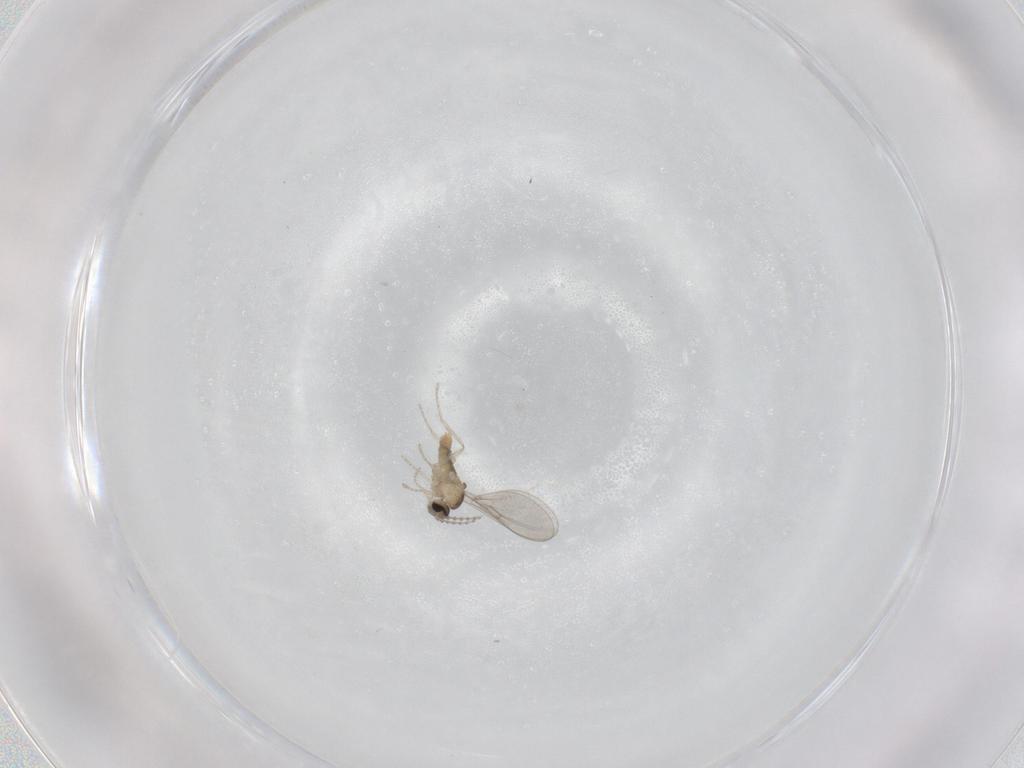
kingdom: Animalia
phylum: Arthropoda
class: Insecta
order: Diptera
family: Cecidomyiidae
